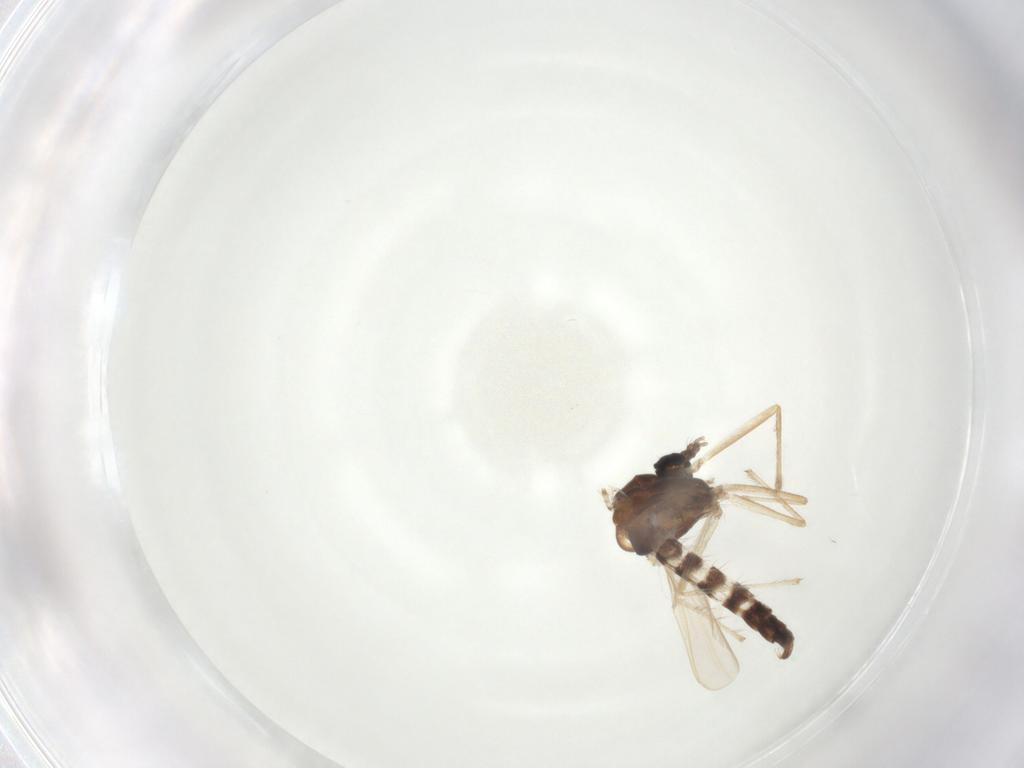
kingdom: Animalia
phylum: Arthropoda
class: Insecta
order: Diptera
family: Chironomidae
